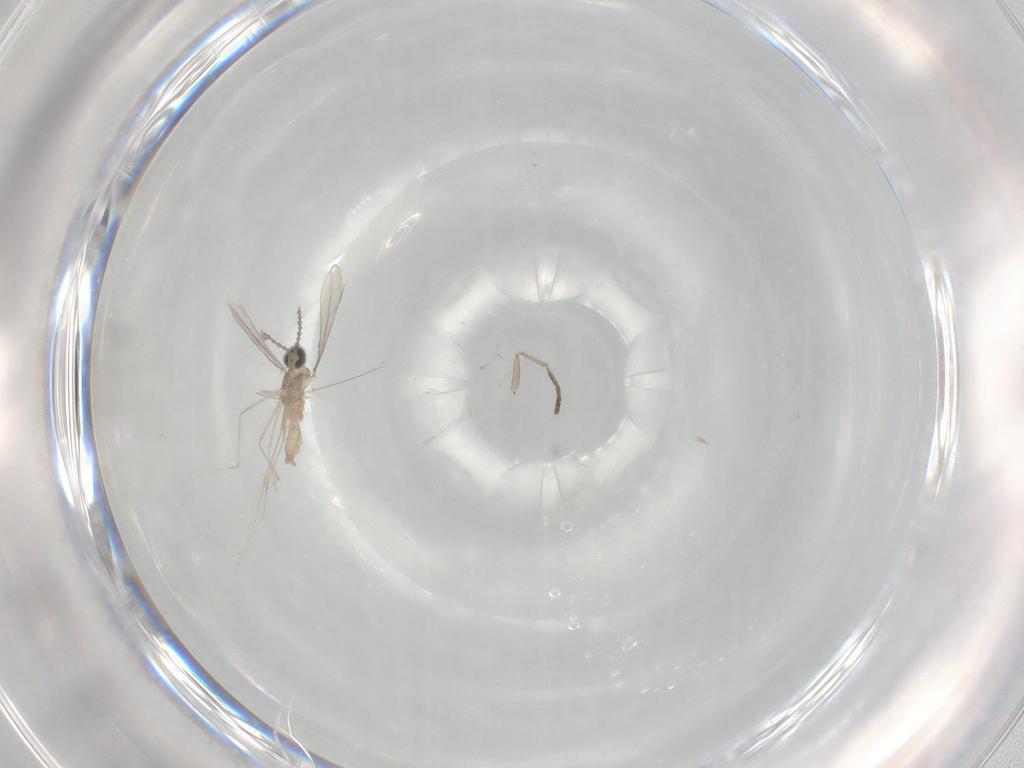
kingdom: Animalia
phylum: Arthropoda
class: Insecta
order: Diptera
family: Cecidomyiidae
